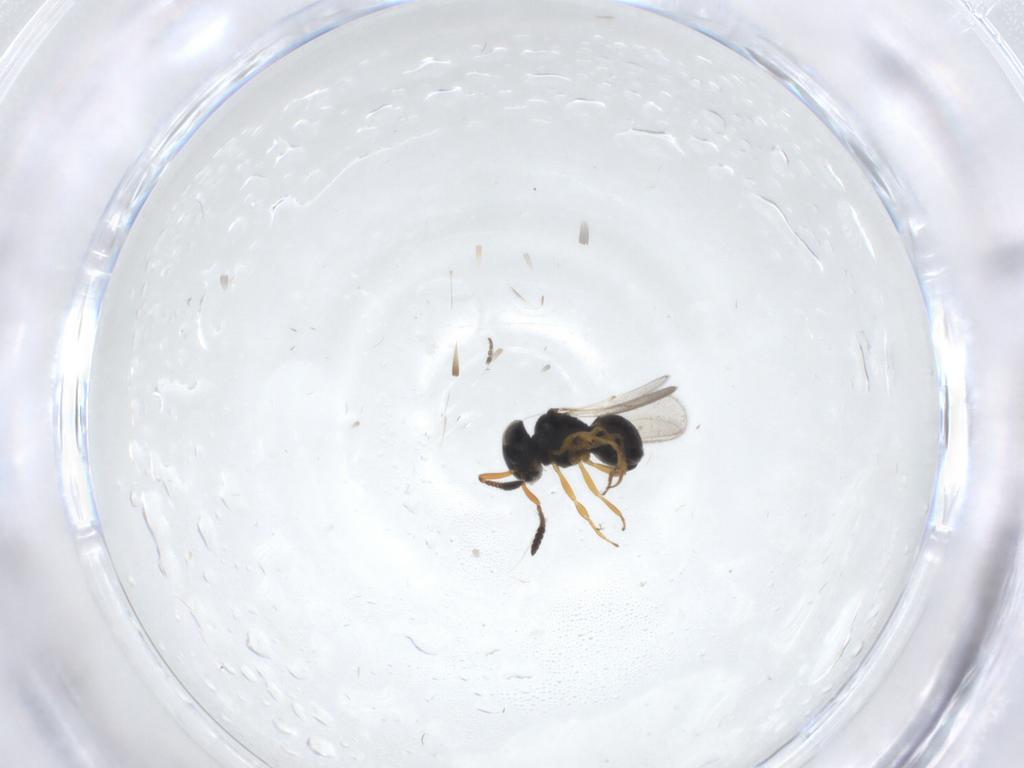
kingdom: Animalia
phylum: Arthropoda
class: Insecta
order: Hymenoptera
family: Scelionidae
